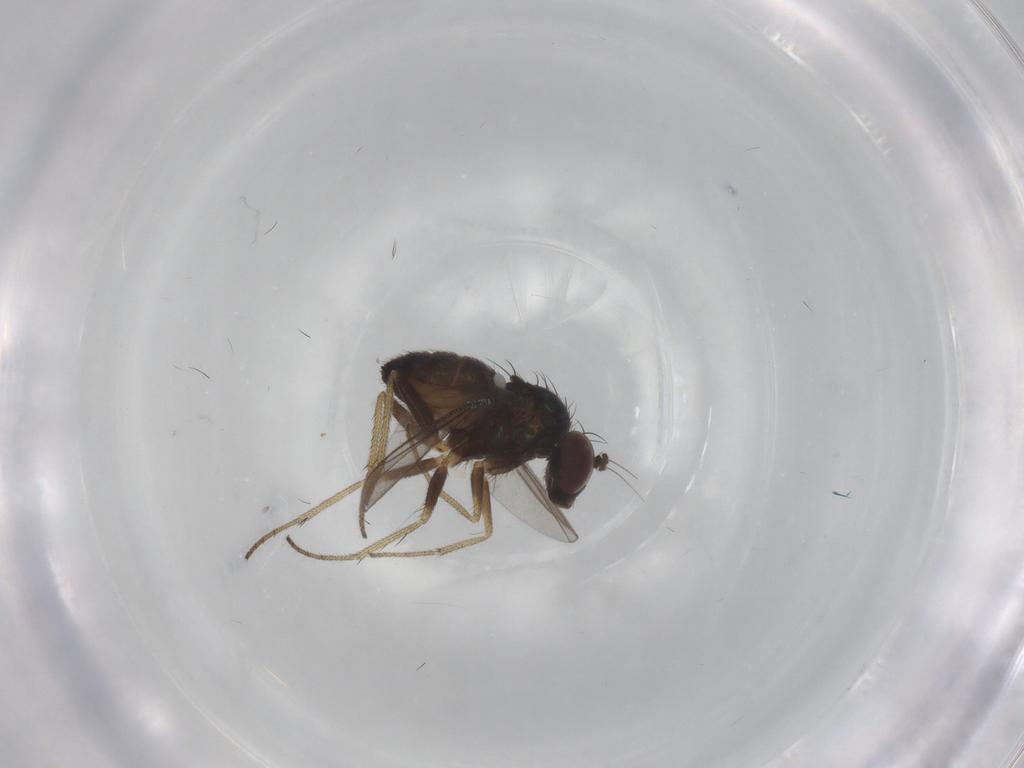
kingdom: Animalia
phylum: Arthropoda
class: Insecta
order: Diptera
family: Dolichopodidae
